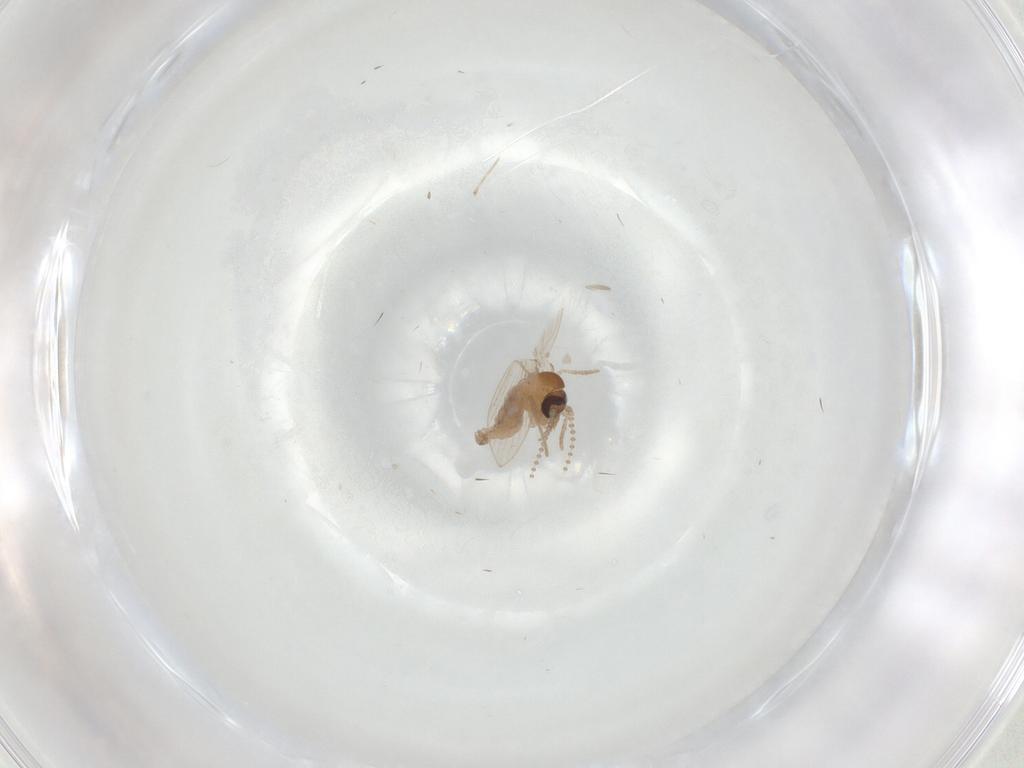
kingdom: Animalia
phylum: Arthropoda
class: Insecta
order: Diptera
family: Psychodidae
